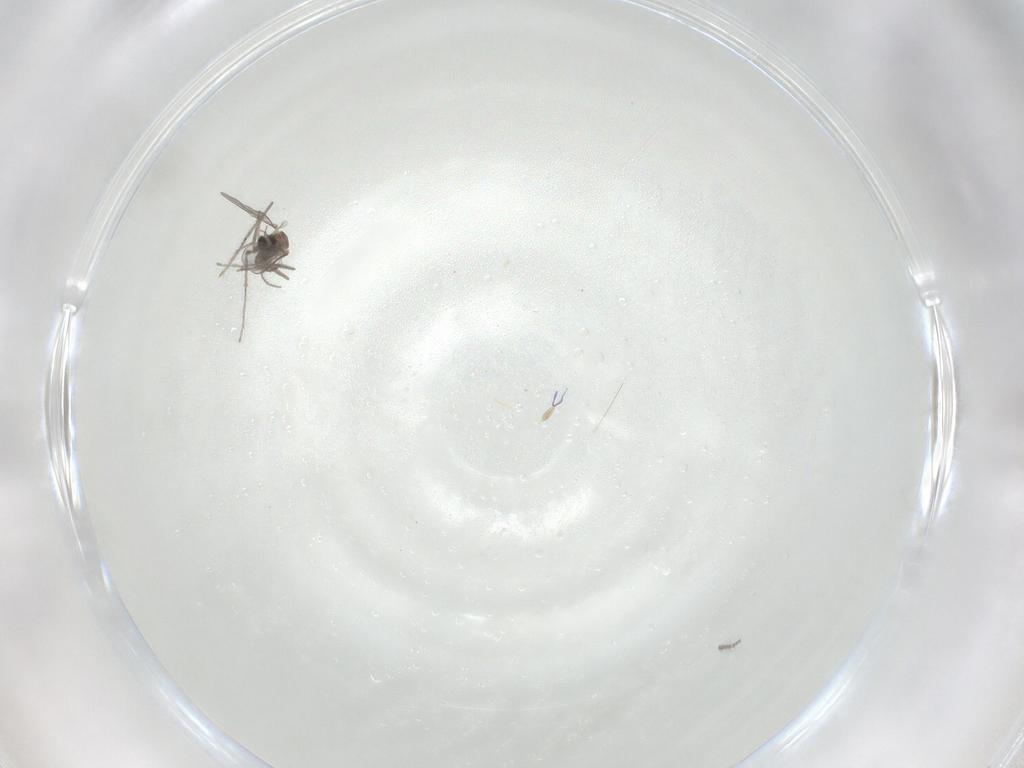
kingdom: Animalia
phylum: Arthropoda
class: Insecta
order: Diptera
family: Cecidomyiidae
